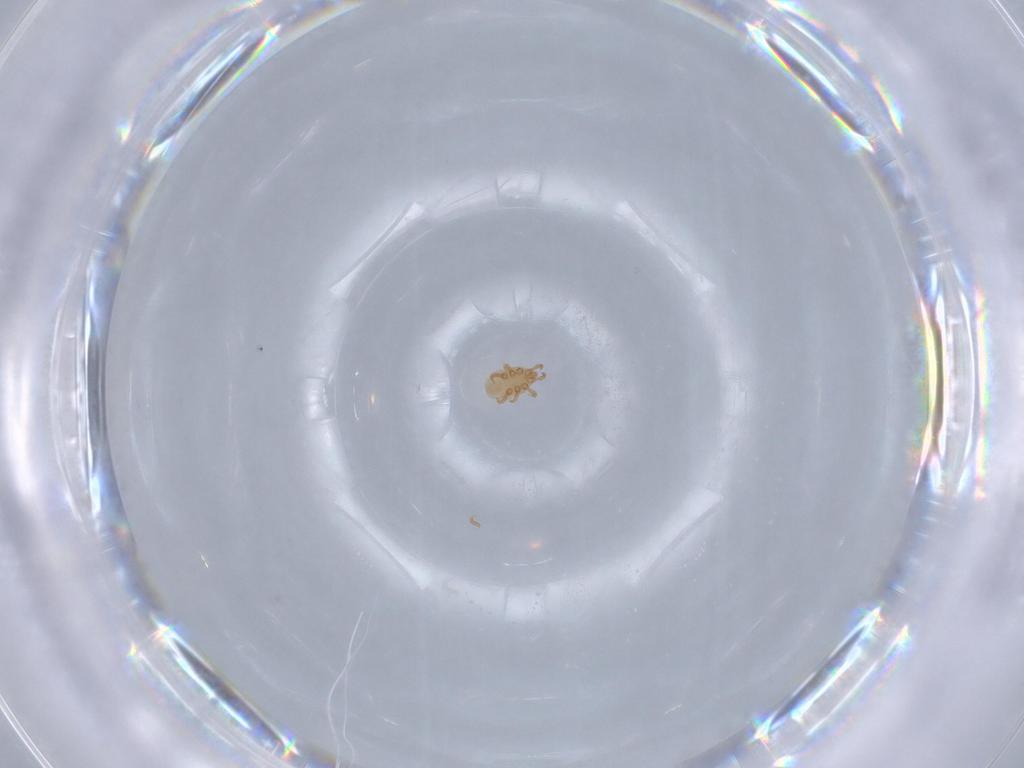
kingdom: Animalia
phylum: Arthropoda
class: Arachnida
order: Mesostigmata
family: Dinychidae
